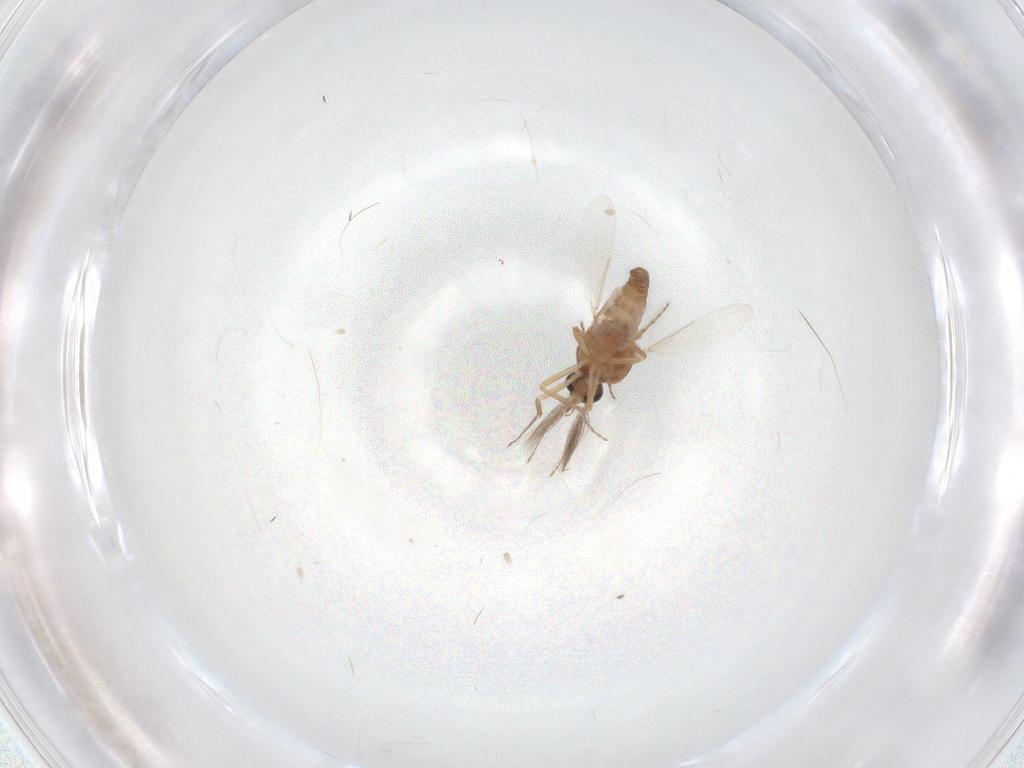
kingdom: Animalia
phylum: Arthropoda
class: Insecta
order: Diptera
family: Ceratopogonidae
